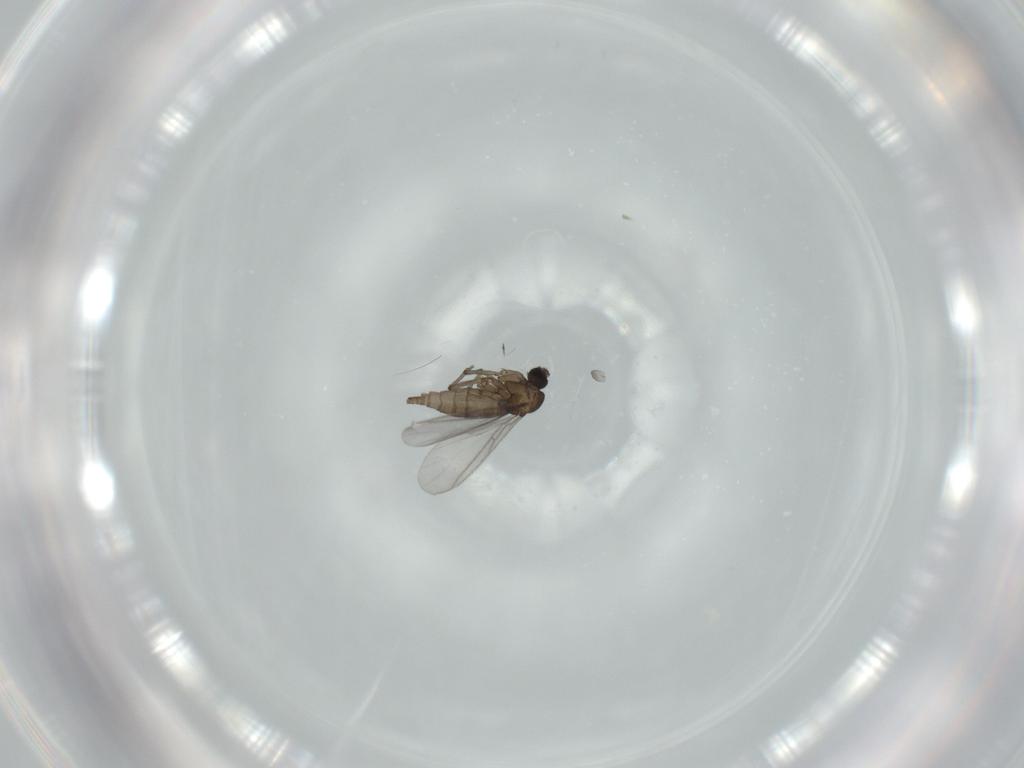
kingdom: Animalia
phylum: Arthropoda
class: Insecta
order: Diptera
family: Sciaridae
